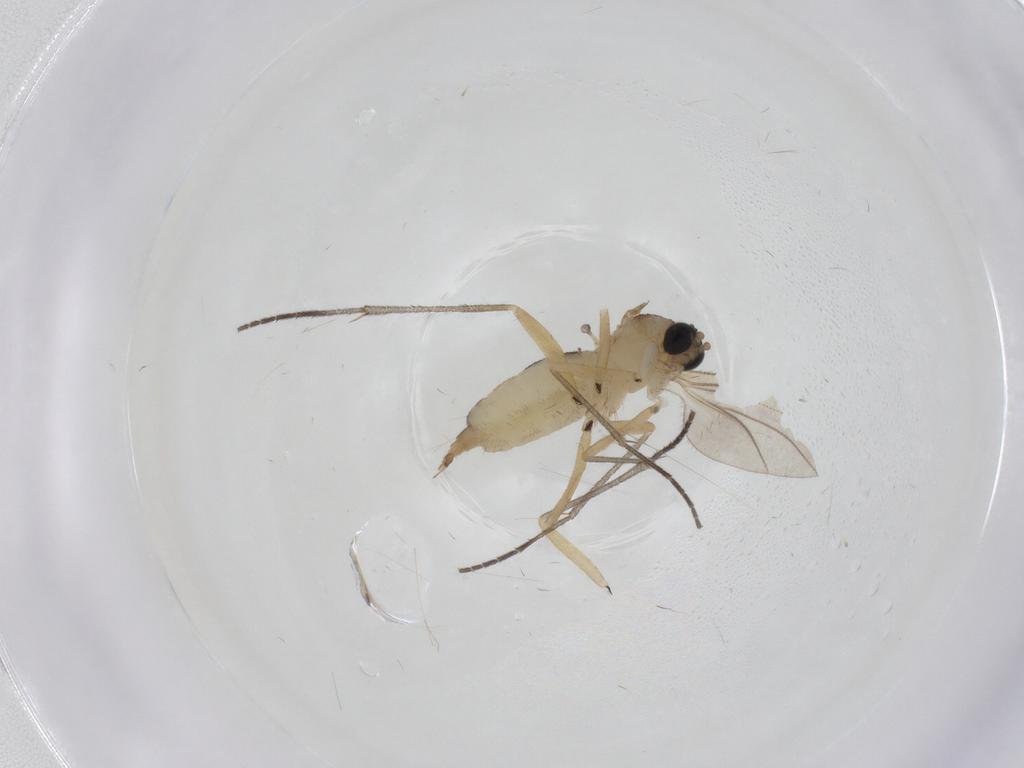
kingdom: Animalia
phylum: Arthropoda
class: Insecta
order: Diptera
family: Sciaridae
